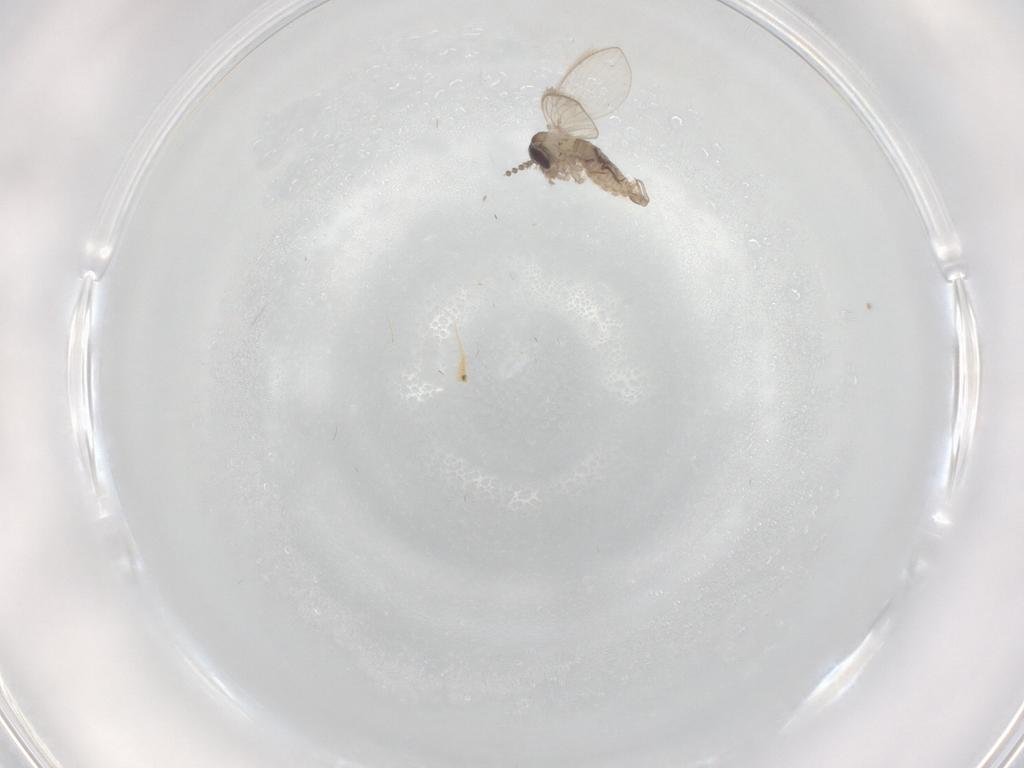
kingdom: Animalia
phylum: Arthropoda
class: Insecta
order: Diptera
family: Psychodidae
